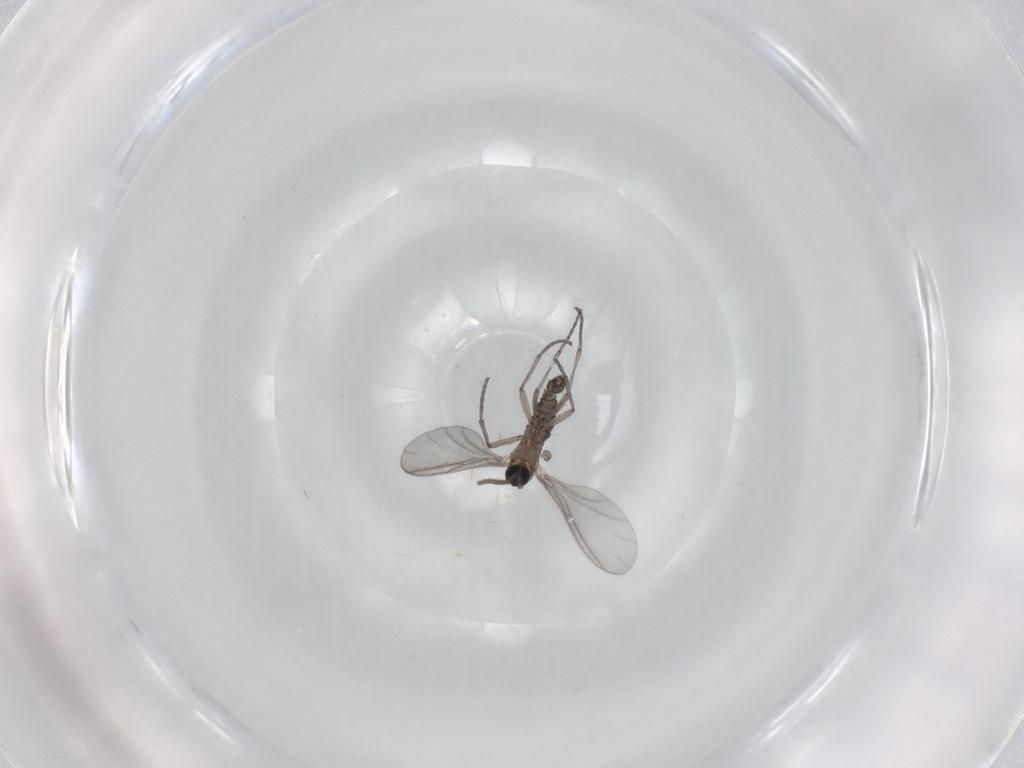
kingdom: Animalia
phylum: Arthropoda
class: Insecta
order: Diptera
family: Sciaridae
